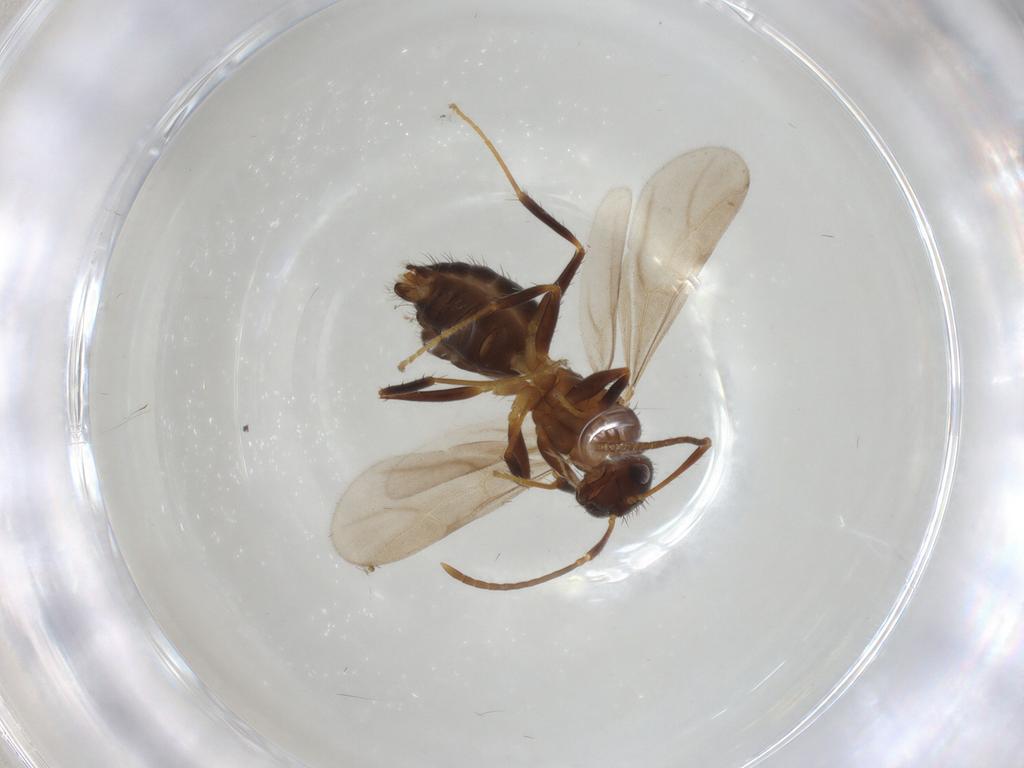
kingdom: Animalia
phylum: Arthropoda
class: Insecta
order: Hymenoptera
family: Formicidae
